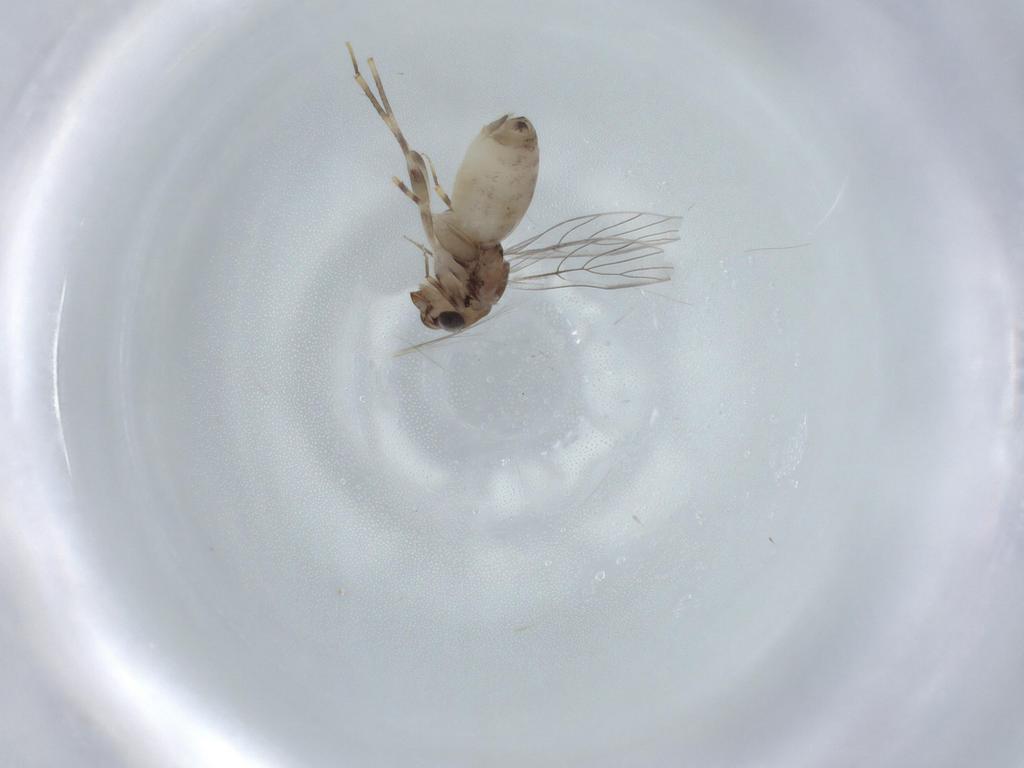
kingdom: Animalia
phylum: Arthropoda
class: Insecta
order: Psocodea
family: Lepidopsocidae
